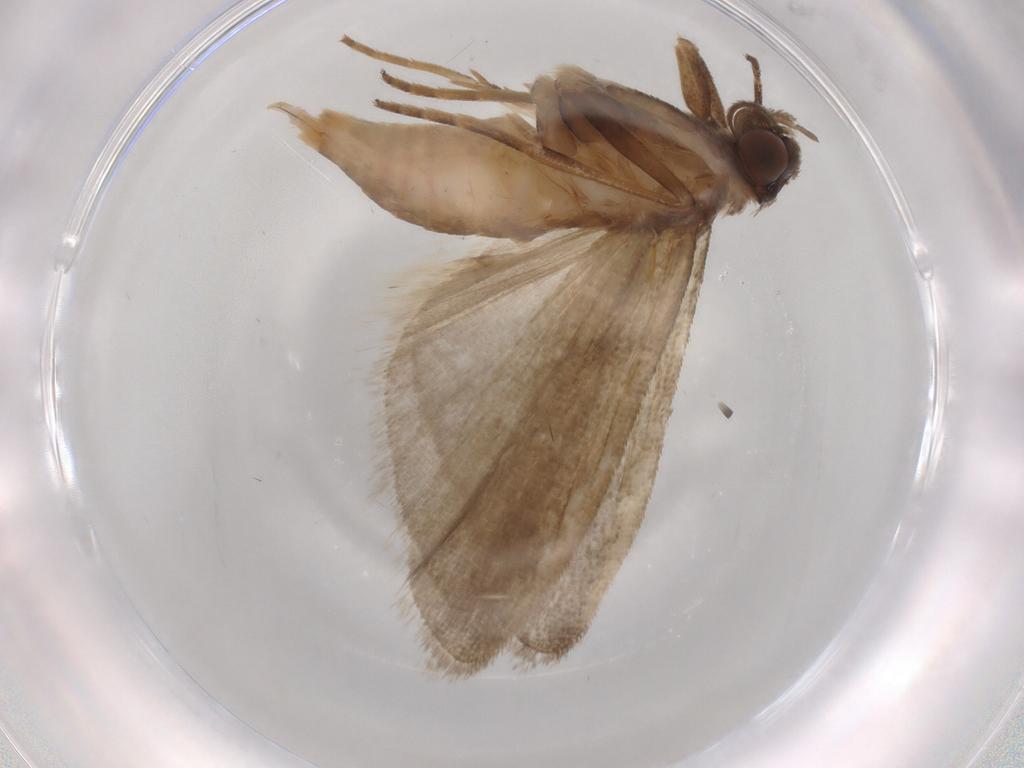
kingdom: Animalia
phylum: Arthropoda
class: Insecta
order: Lepidoptera
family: Noctuidae
